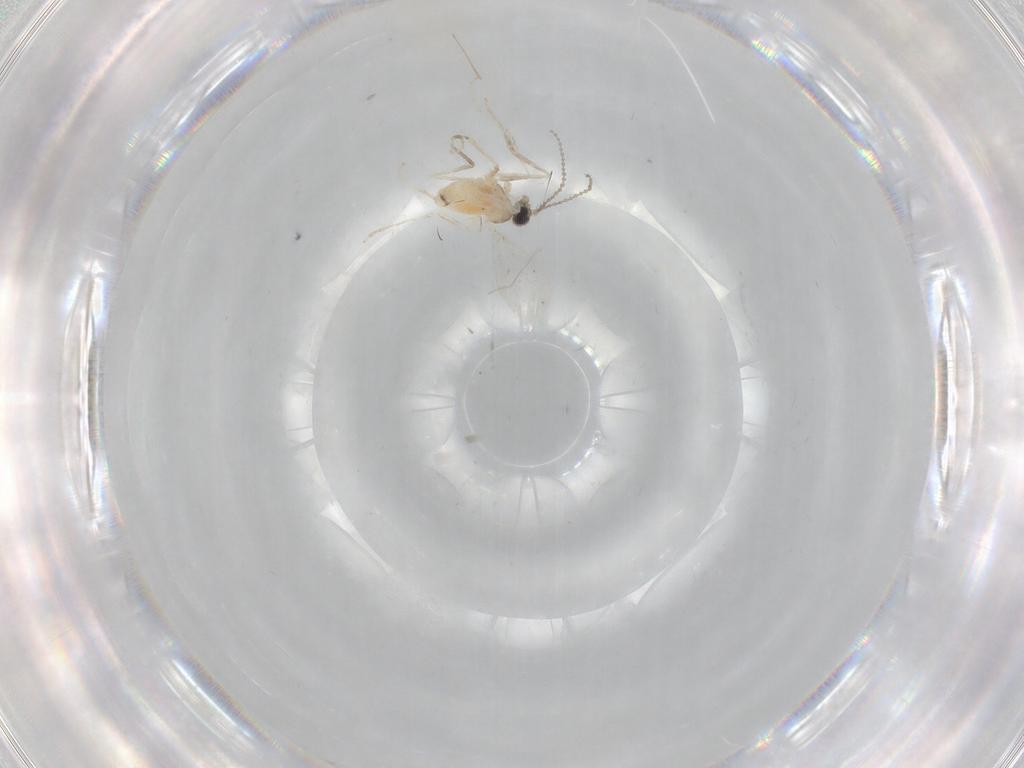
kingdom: Animalia
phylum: Arthropoda
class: Insecta
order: Diptera
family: Cecidomyiidae
